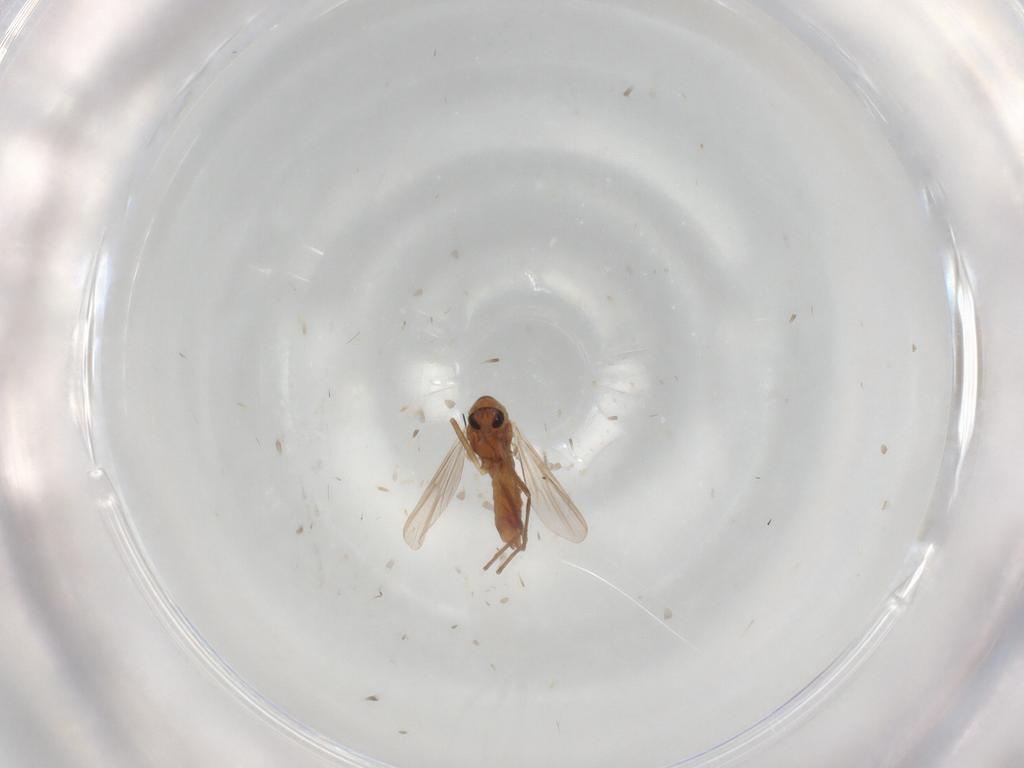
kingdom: Animalia
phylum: Arthropoda
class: Insecta
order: Diptera
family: Chironomidae
